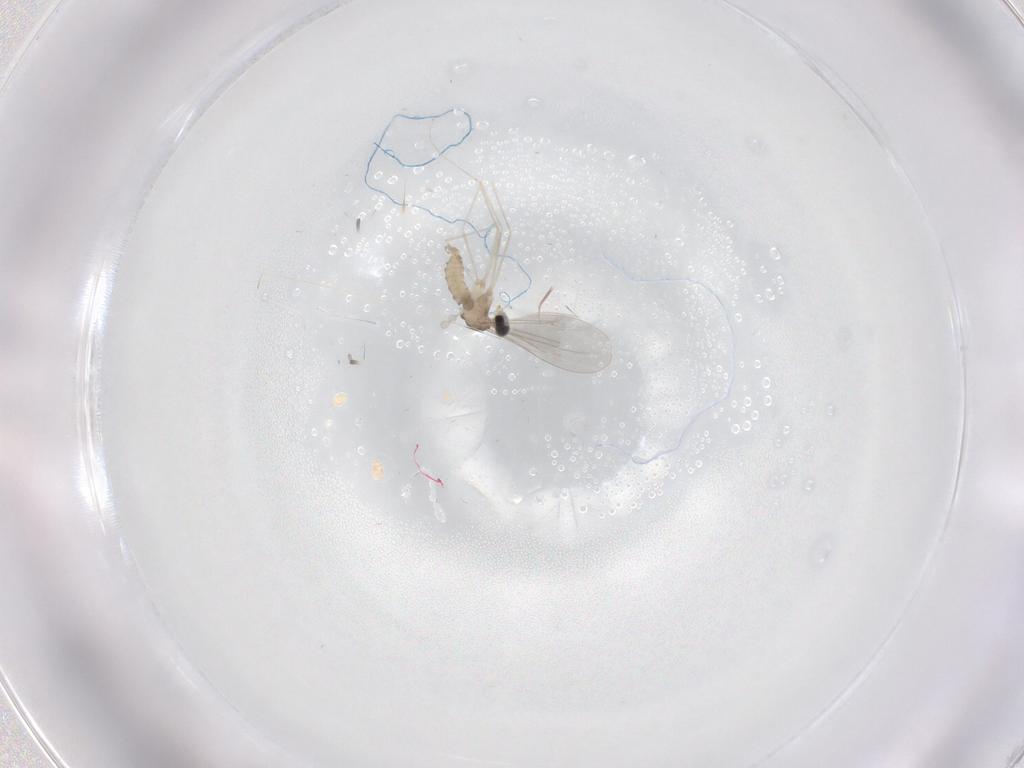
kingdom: Animalia
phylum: Arthropoda
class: Insecta
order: Diptera
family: Cecidomyiidae
